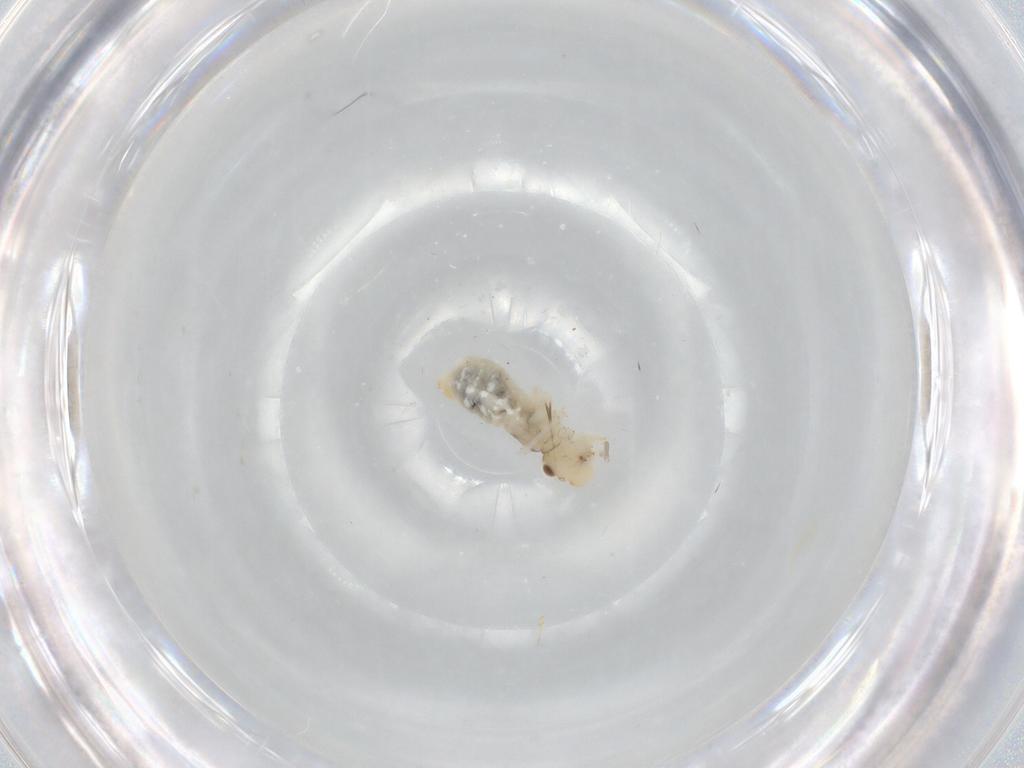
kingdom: Animalia
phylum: Arthropoda
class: Insecta
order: Psocodea
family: Caeciliusidae
